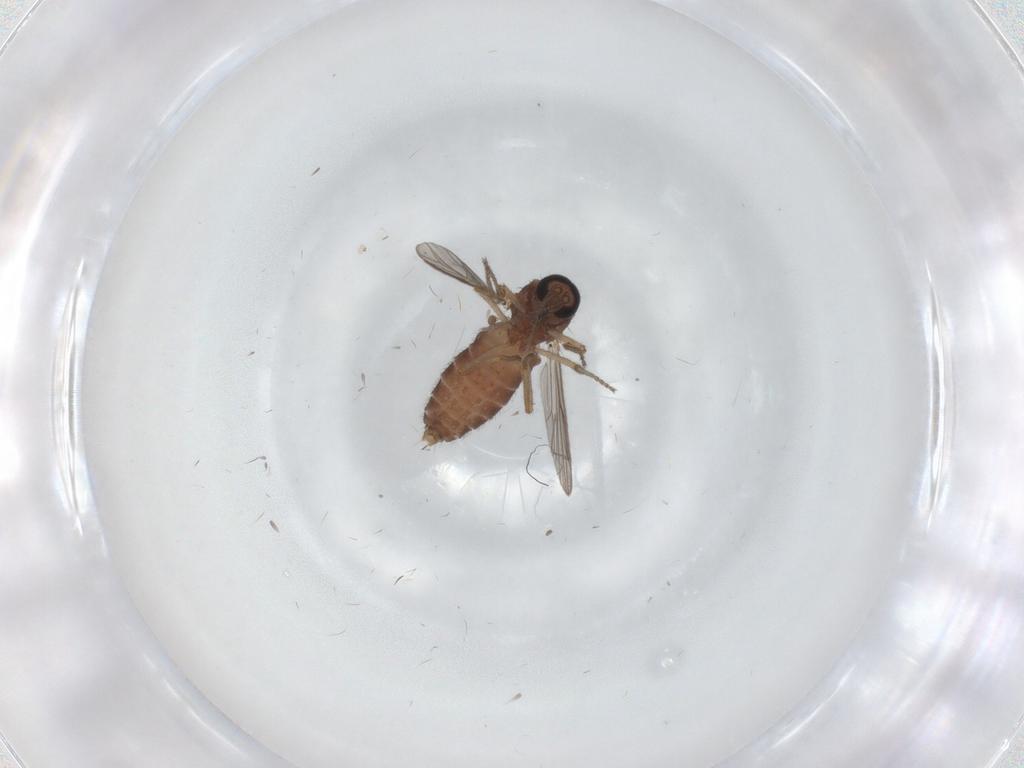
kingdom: Animalia
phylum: Arthropoda
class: Insecta
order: Diptera
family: Ceratopogonidae
